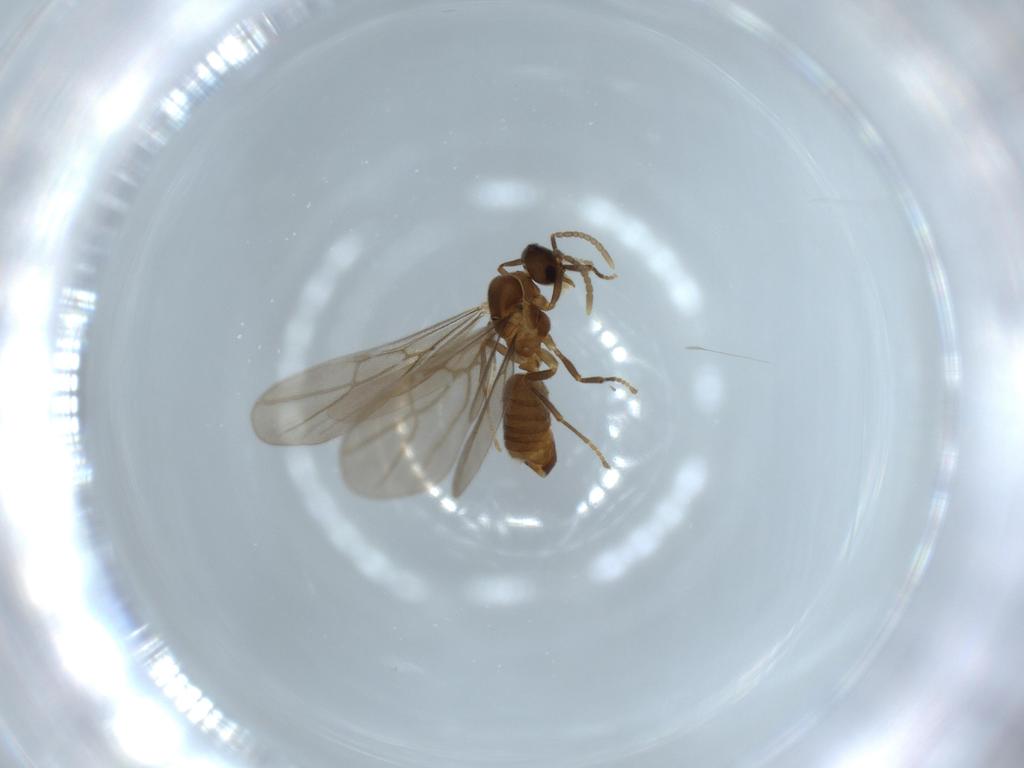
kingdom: Animalia
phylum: Arthropoda
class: Insecta
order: Hymenoptera
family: Formicidae
